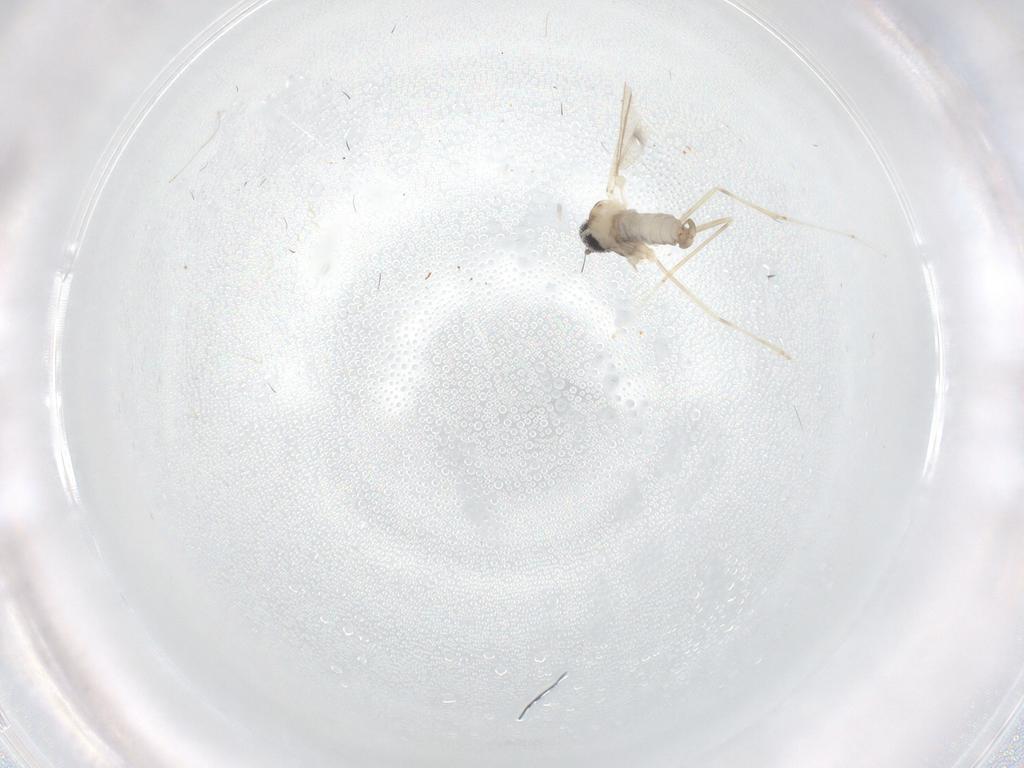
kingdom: Animalia
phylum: Arthropoda
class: Insecta
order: Diptera
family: Cecidomyiidae
